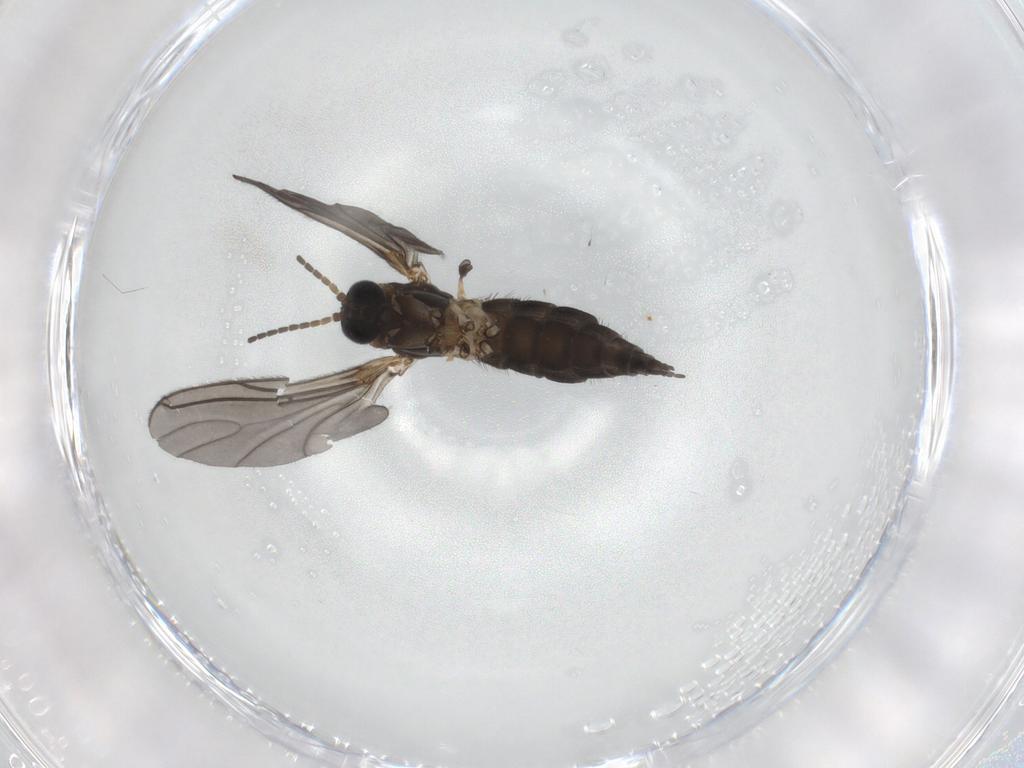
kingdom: Animalia
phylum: Arthropoda
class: Insecta
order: Diptera
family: Sciaridae
